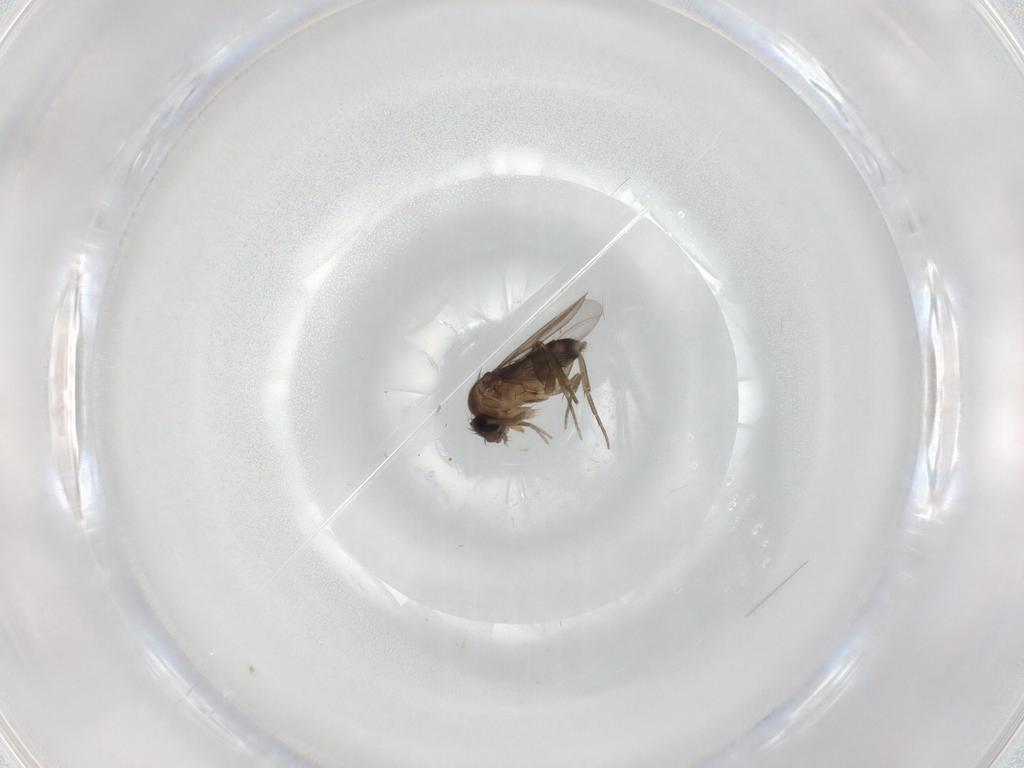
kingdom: Animalia
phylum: Arthropoda
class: Insecta
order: Diptera
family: Phoridae
